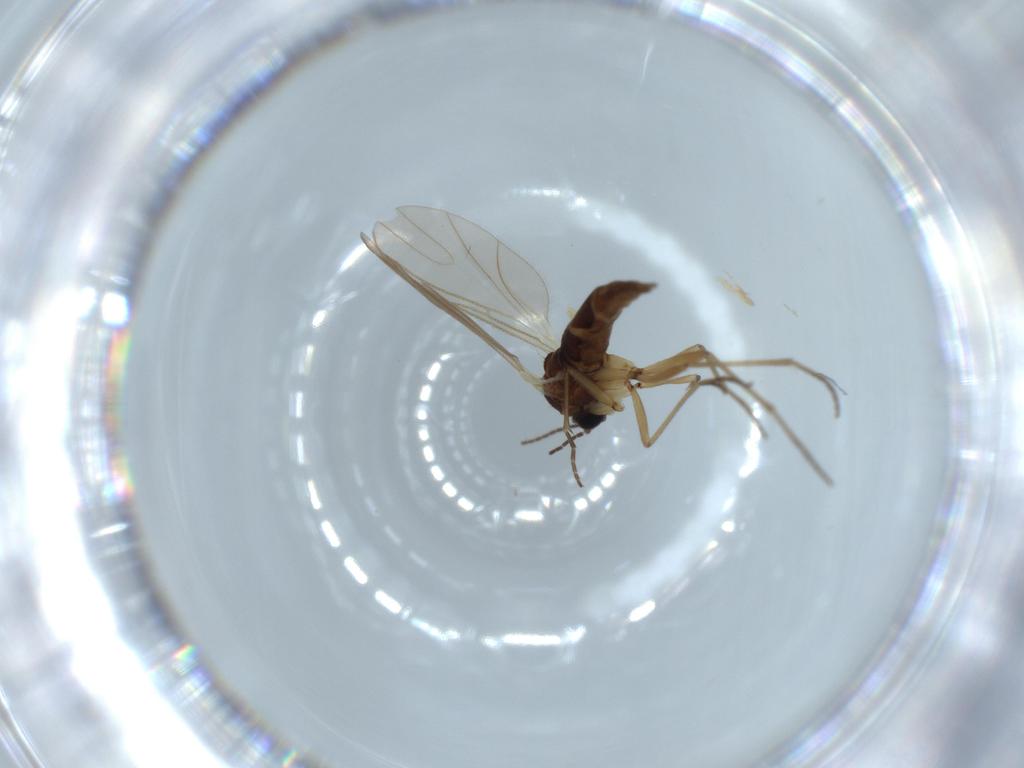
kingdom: Animalia
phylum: Arthropoda
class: Insecta
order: Diptera
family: Sciaridae
